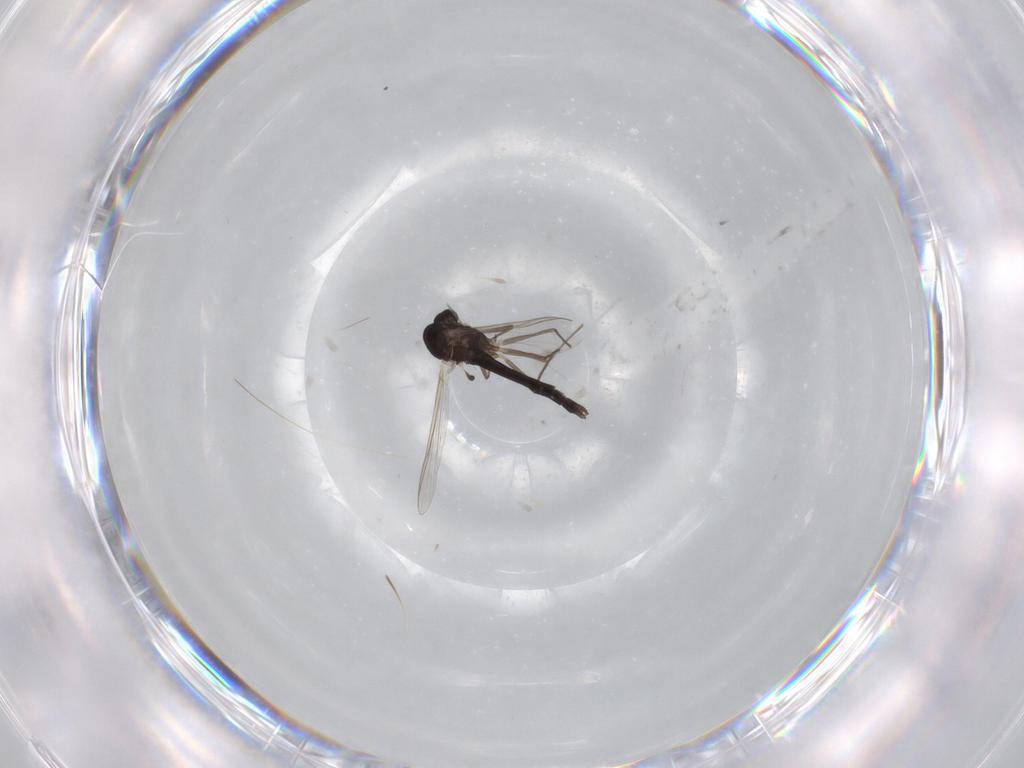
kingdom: Animalia
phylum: Arthropoda
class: Insecta
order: Diptera
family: Chironomidae
